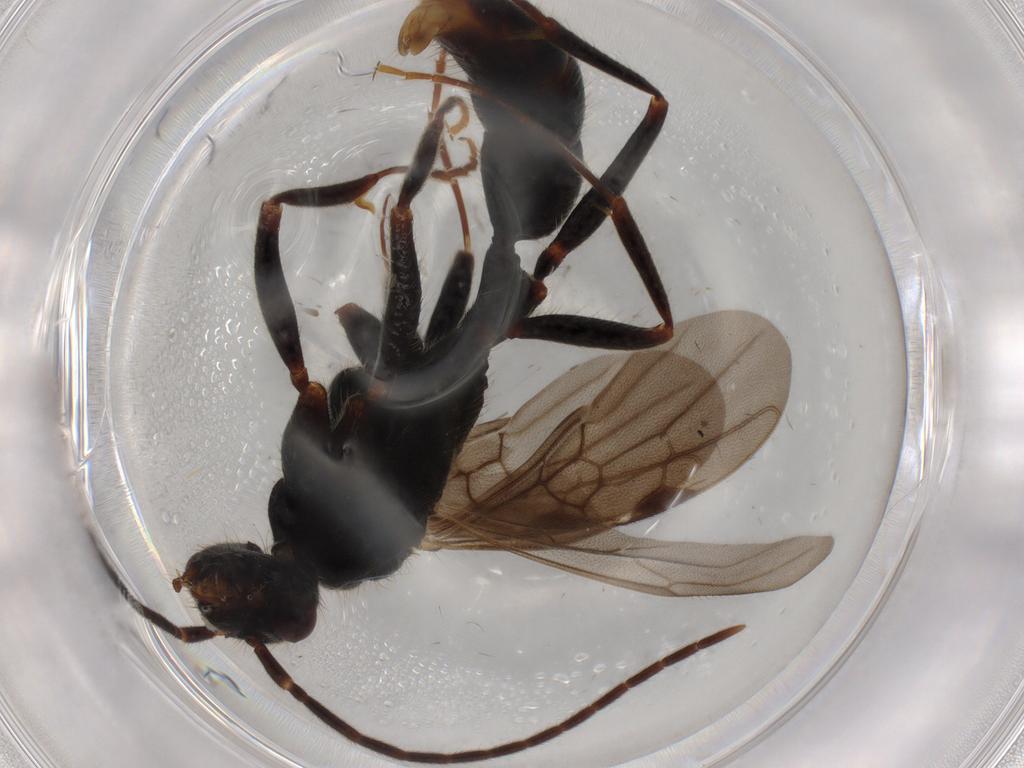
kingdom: Animalia
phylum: Arthropoda
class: Insecta
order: Hymenoptera
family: Formicidae
